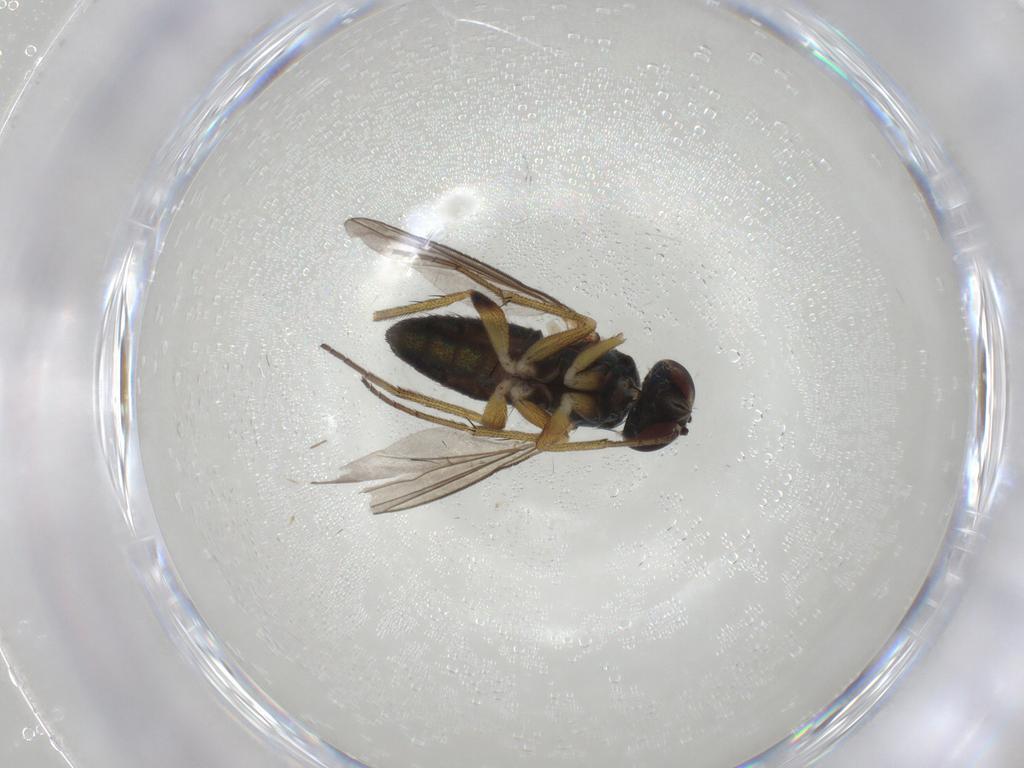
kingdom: Animalia
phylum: Arthropoda
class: Insecta
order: Diptera
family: Dolichopodidae
